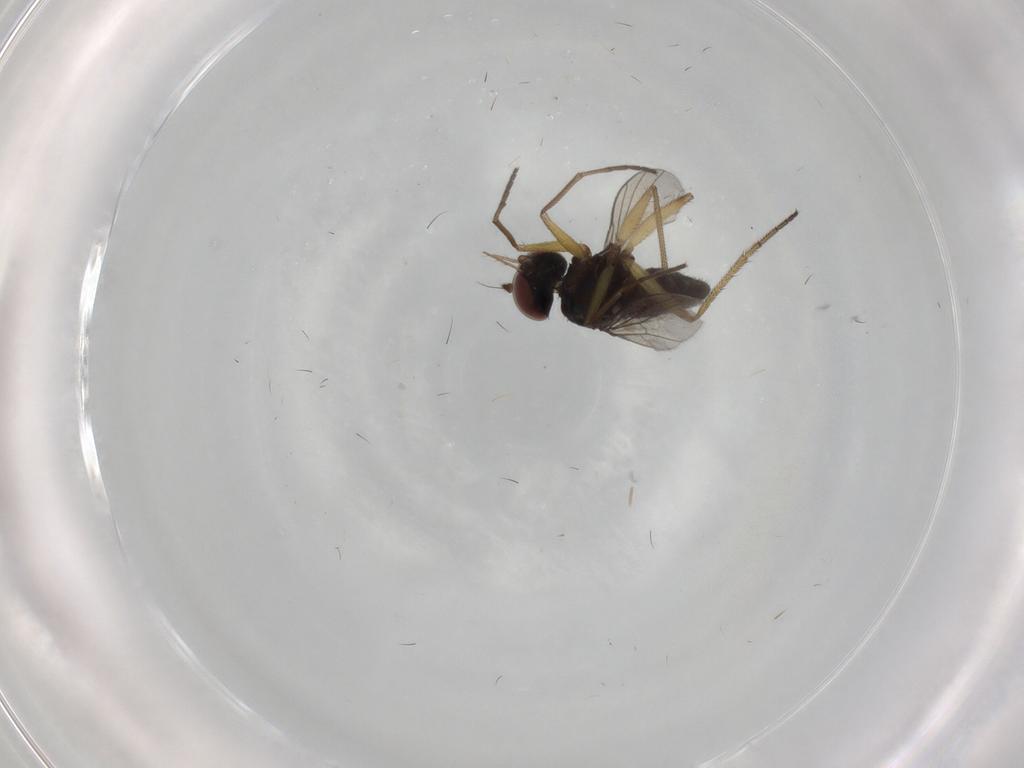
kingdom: Animalia
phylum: Arthropoda
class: Insecta
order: Diptera
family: Dolichopodidae
